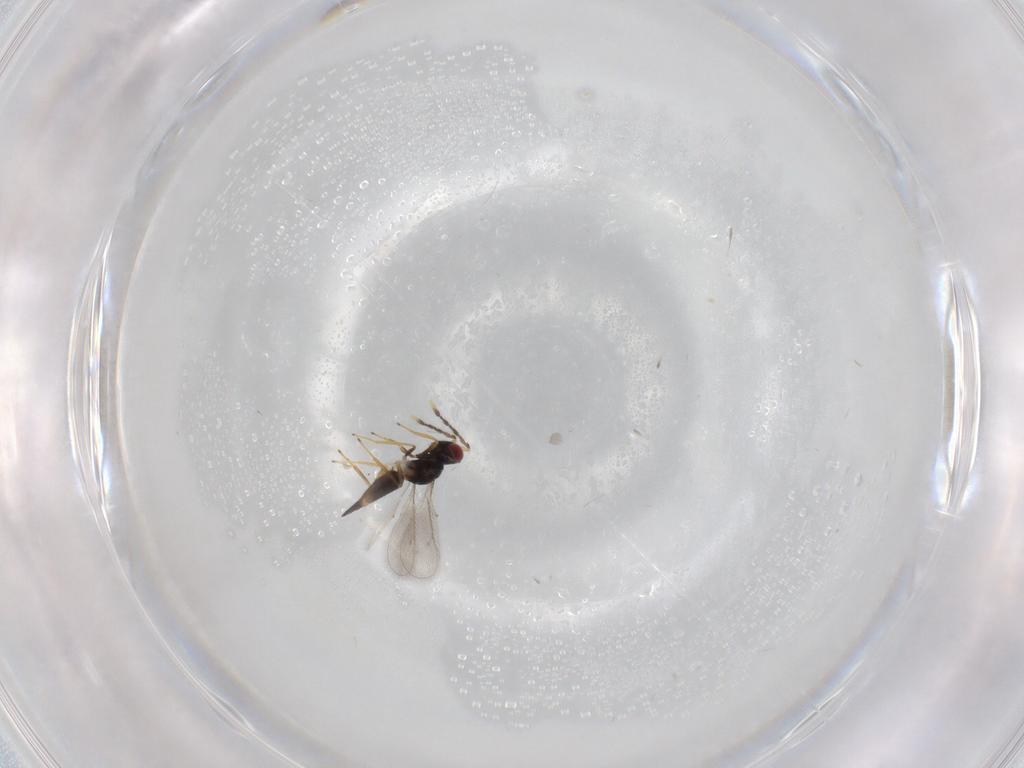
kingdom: Animalia
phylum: Arthropoda
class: Insecta
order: Hymenoptera
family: Eulophidae
